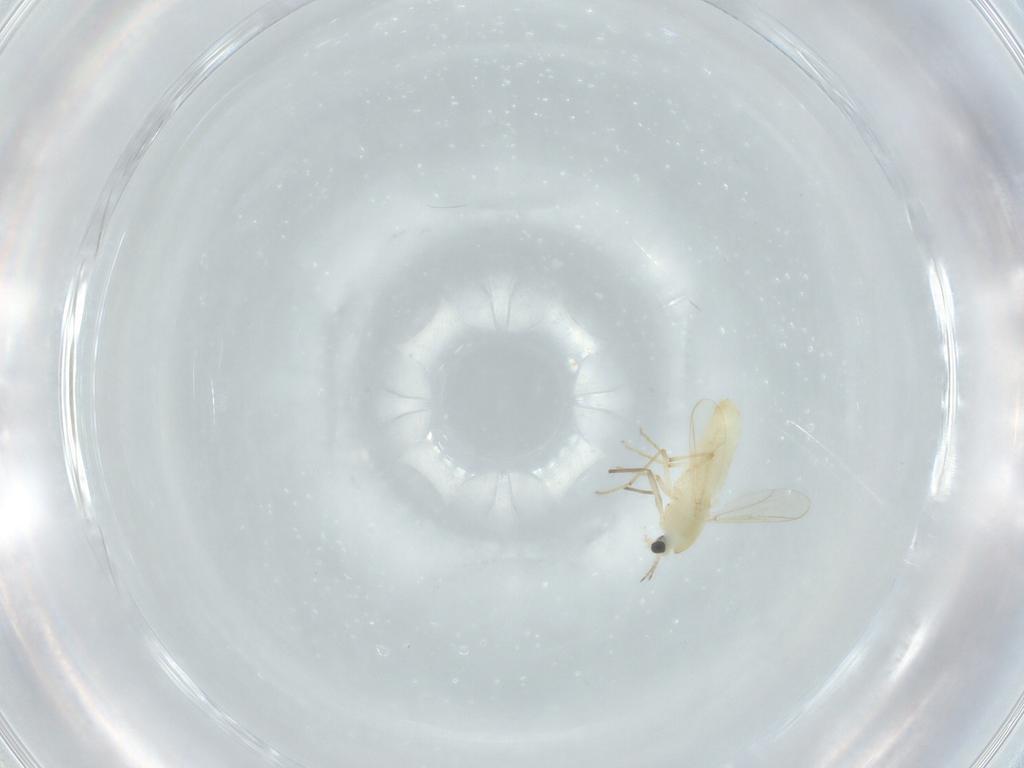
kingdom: Animalia
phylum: Arthropoda
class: Insecta
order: Diptera
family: Chironomidae
